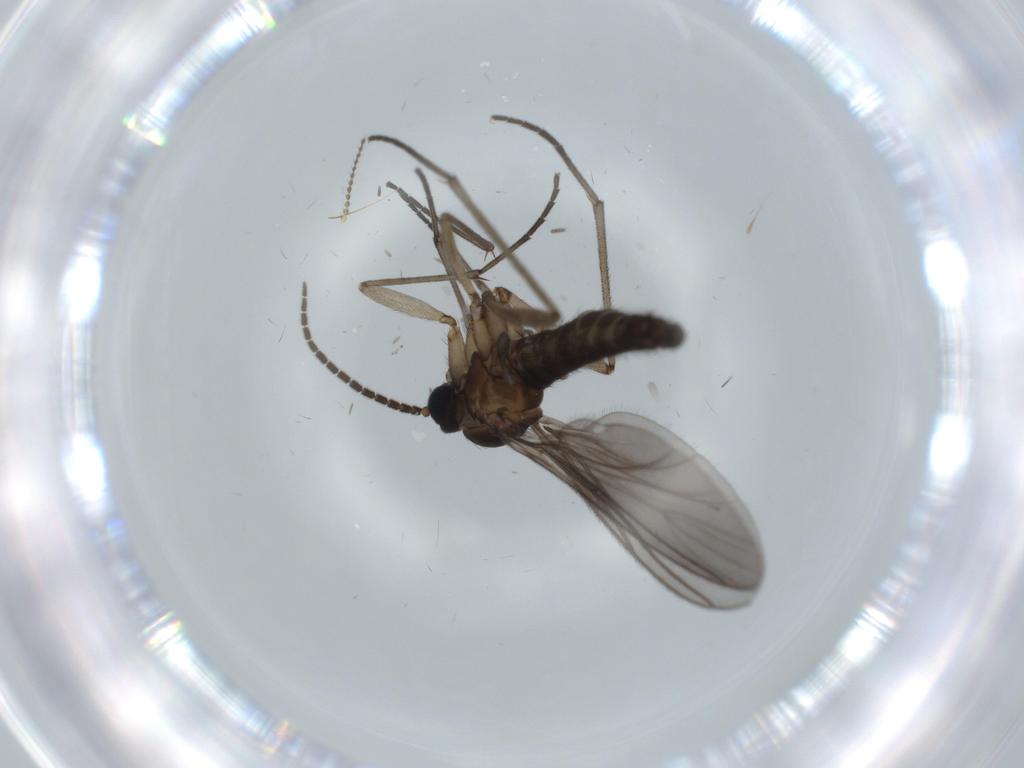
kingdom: Animalia
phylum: Arthropoda
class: Insecta
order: Diptera
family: Sciaridae
